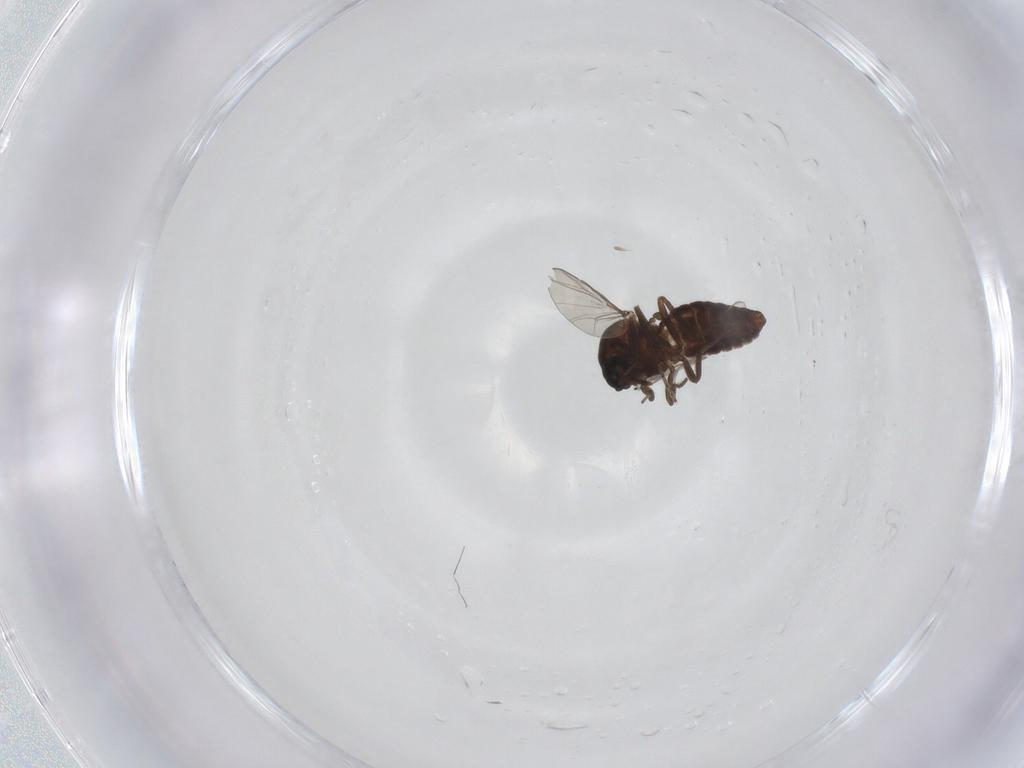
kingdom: Animalia
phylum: Arthropoda
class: Insecta
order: Diptera
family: Ceratopogonidae
